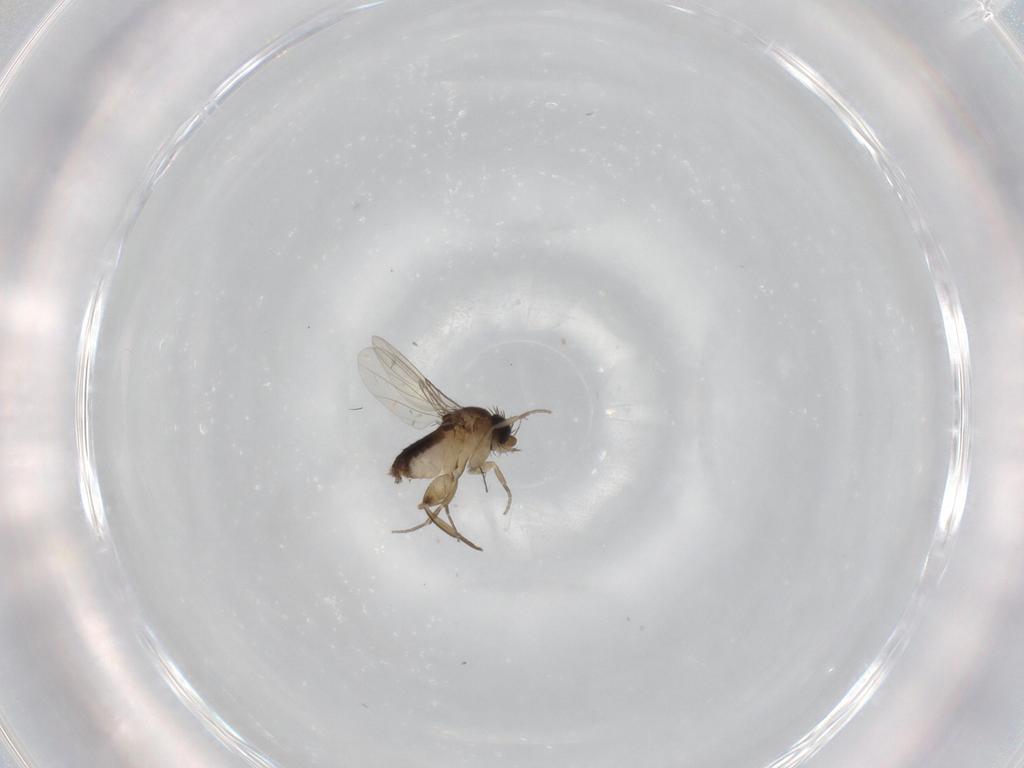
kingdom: Animalia
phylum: Arthropoda
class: Insecta
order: Diptera
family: Phoridae
